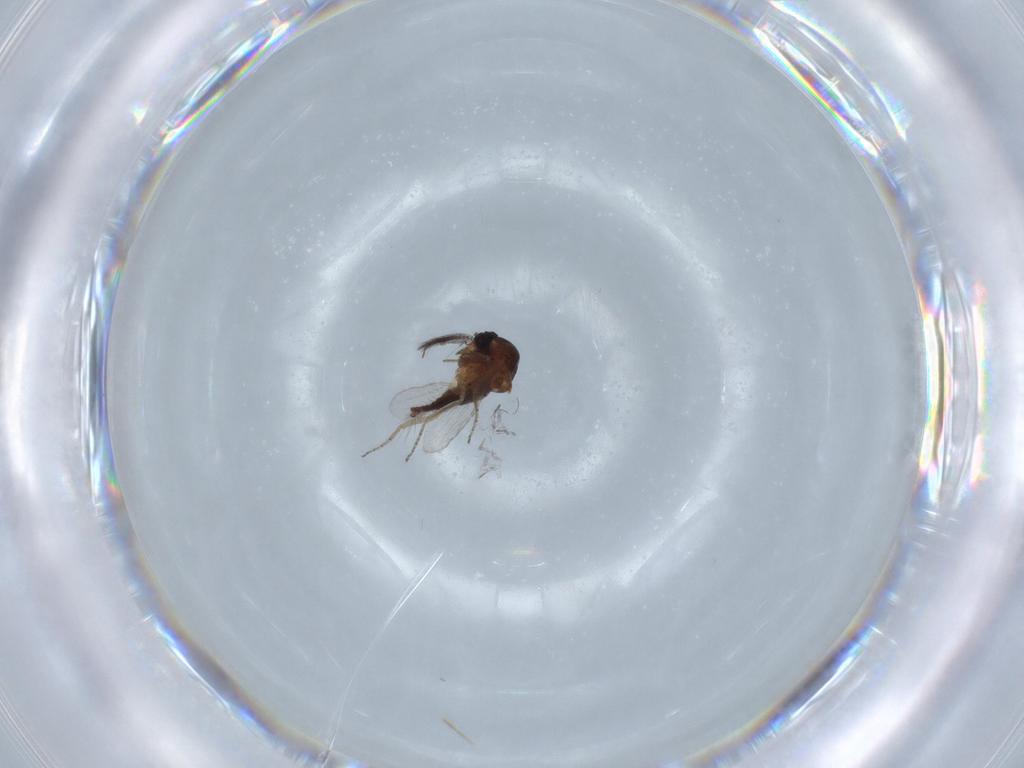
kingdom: Animalia
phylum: Arthropoda
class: Insecta
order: Diptera
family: Ceratopogonidae
